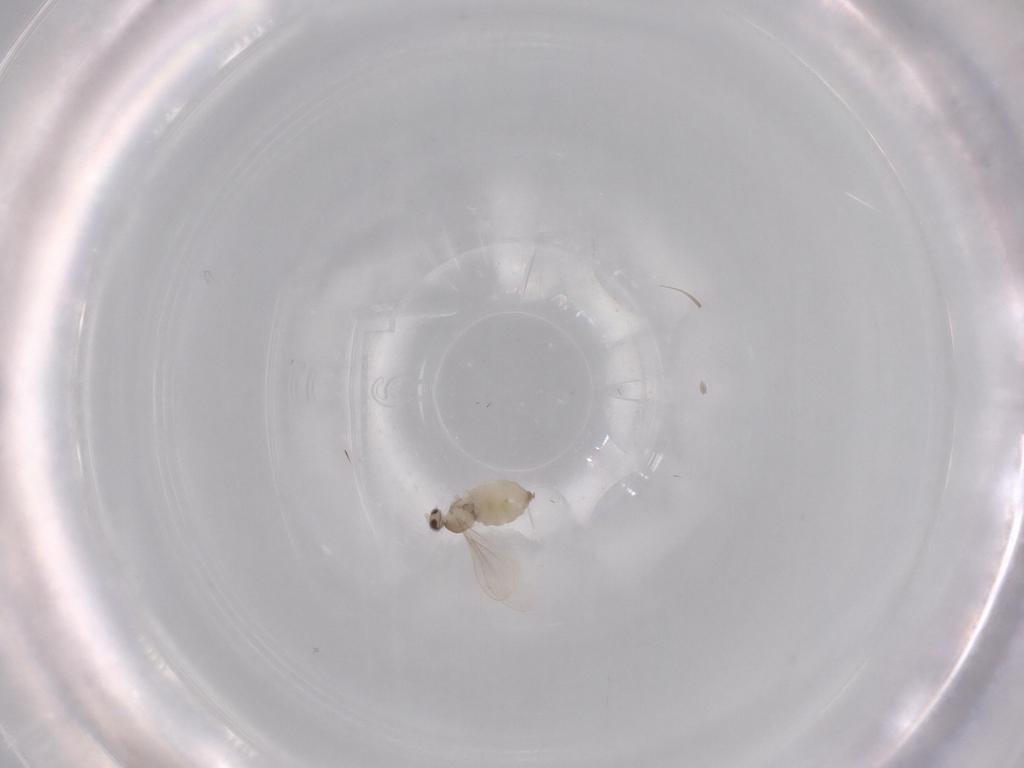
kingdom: Animalia
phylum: Arthropoda
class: Insecta
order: Diptera
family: Cecidomyiidae
